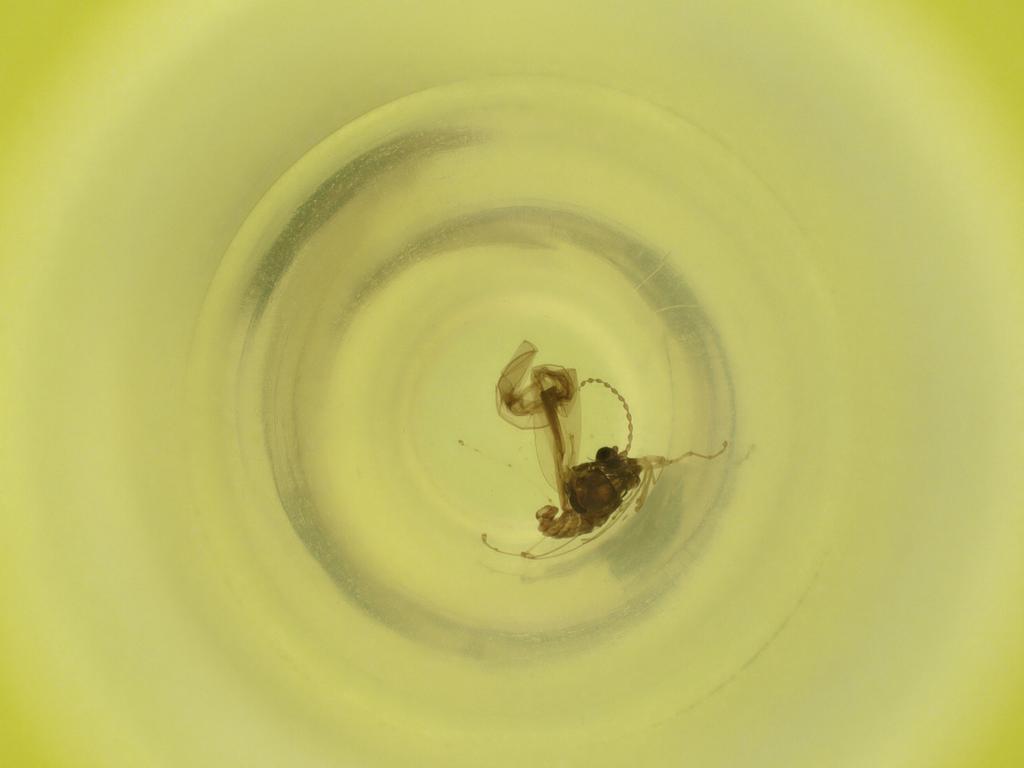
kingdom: Animalia
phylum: Arthropoda
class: Insecta
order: Diptera
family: Cecidomyiidae
